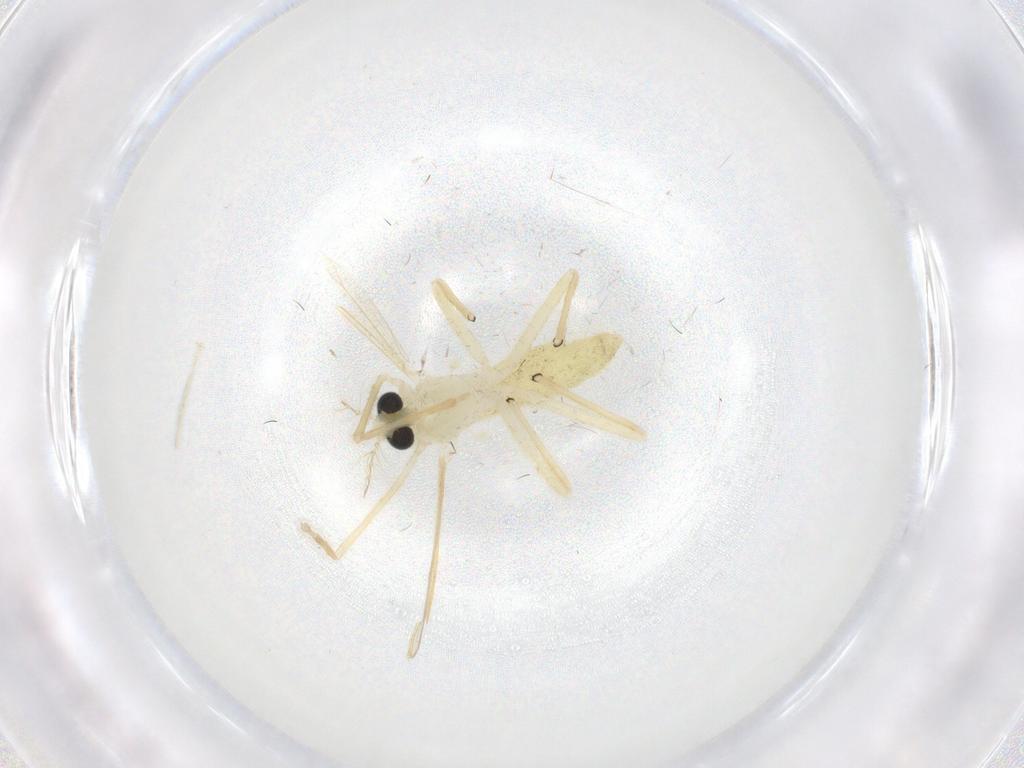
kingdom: Animalia
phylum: Arthropoda
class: Insecta
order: Diptera
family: Chironomidae
